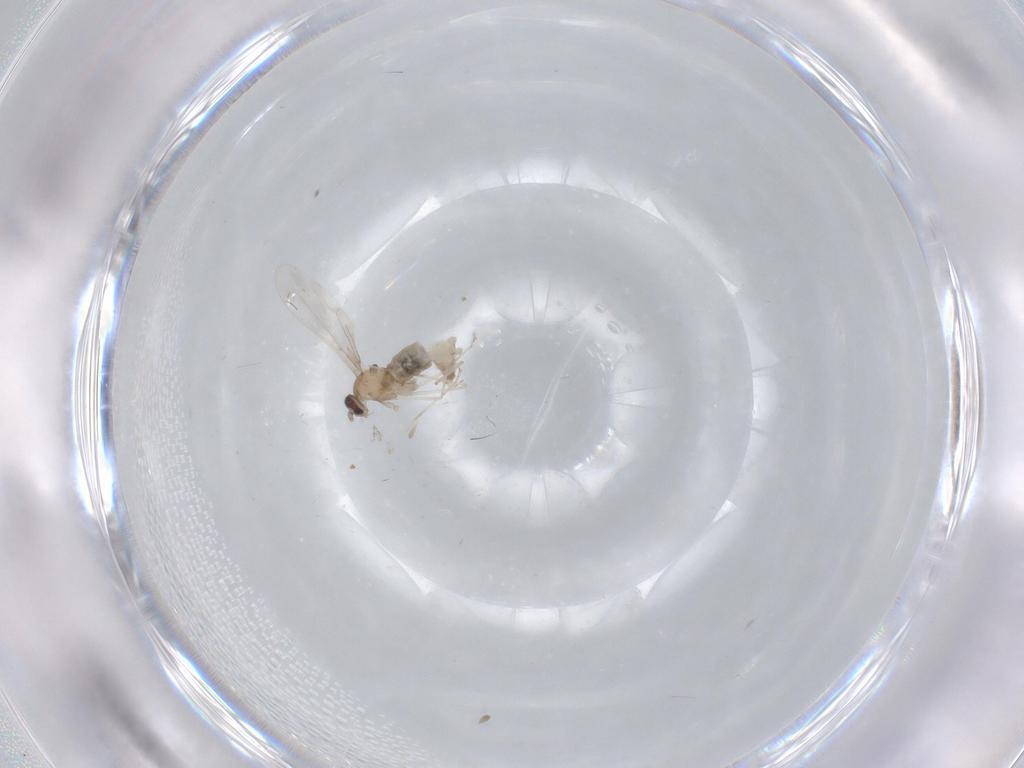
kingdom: Animalia
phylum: Arthropoda
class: Insecta
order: Diptera
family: Cecidomyiidae
